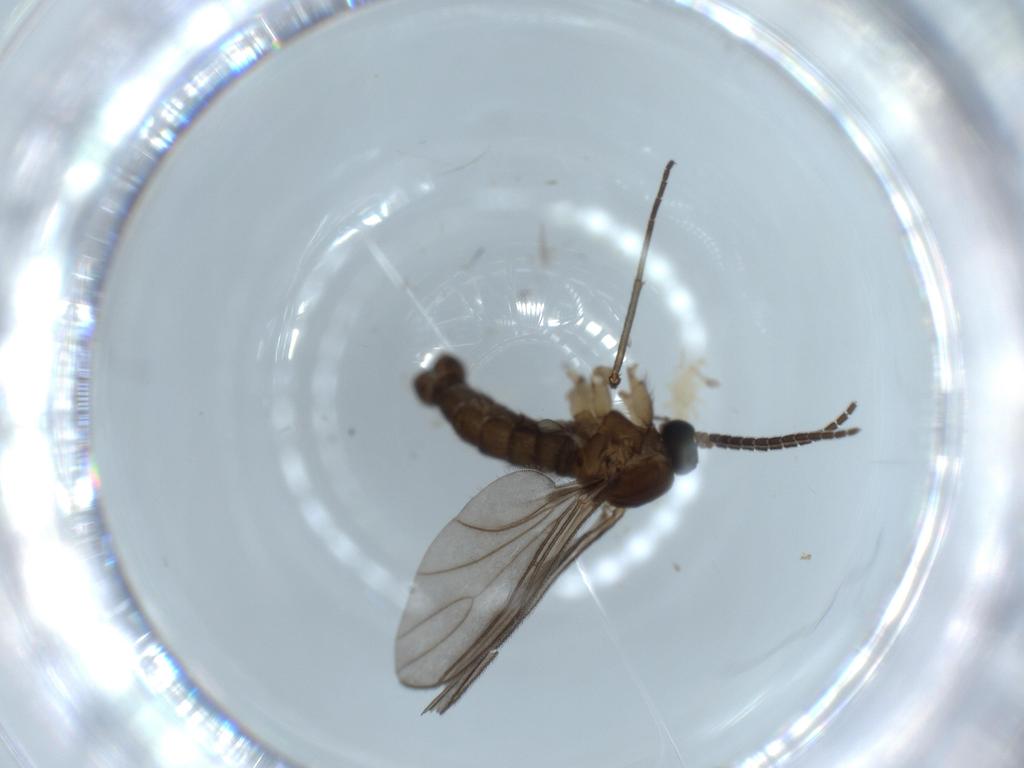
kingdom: Animalia
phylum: Arthropoda
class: Insecta
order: Diptera
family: Sciaridae
